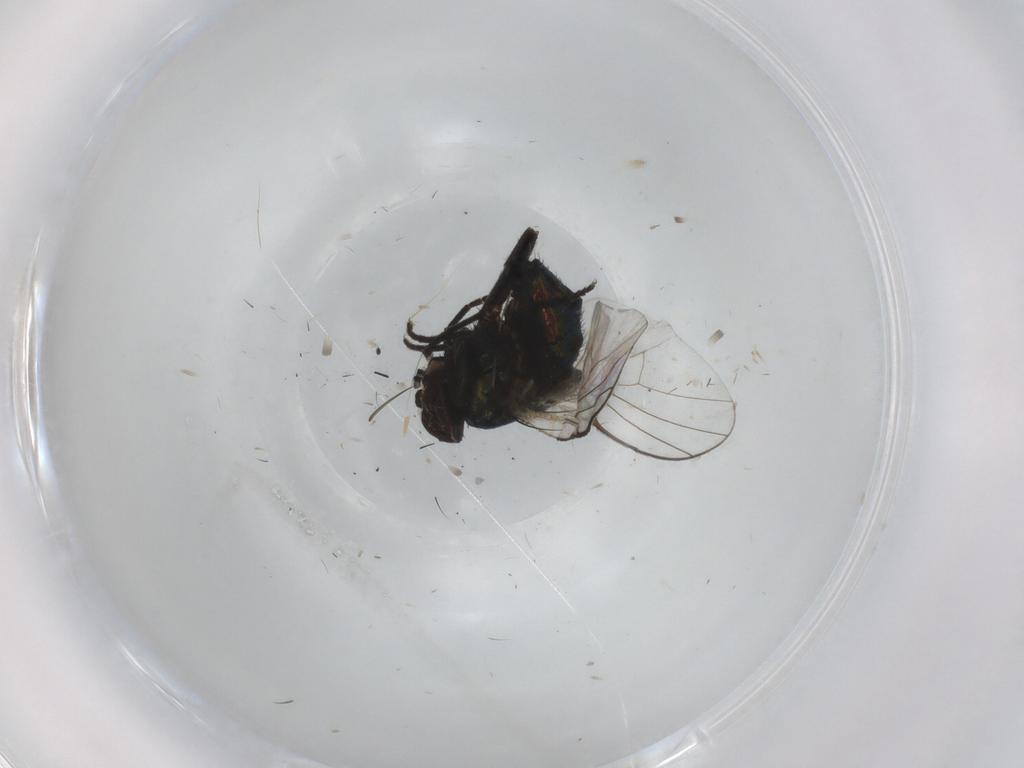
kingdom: Animalia
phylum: Arthropoda
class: Insecta
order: Diptera
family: Agromyzidae
